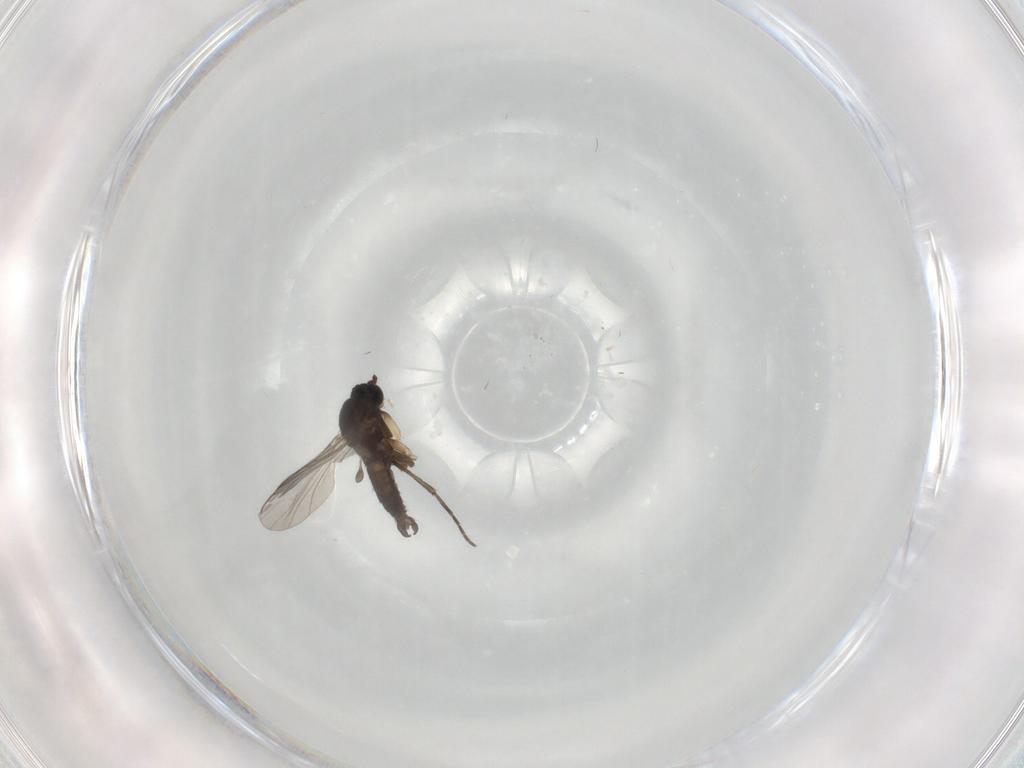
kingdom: Animalia
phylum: Arthropoda
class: Insecta
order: Diptera
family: Sciaridae
